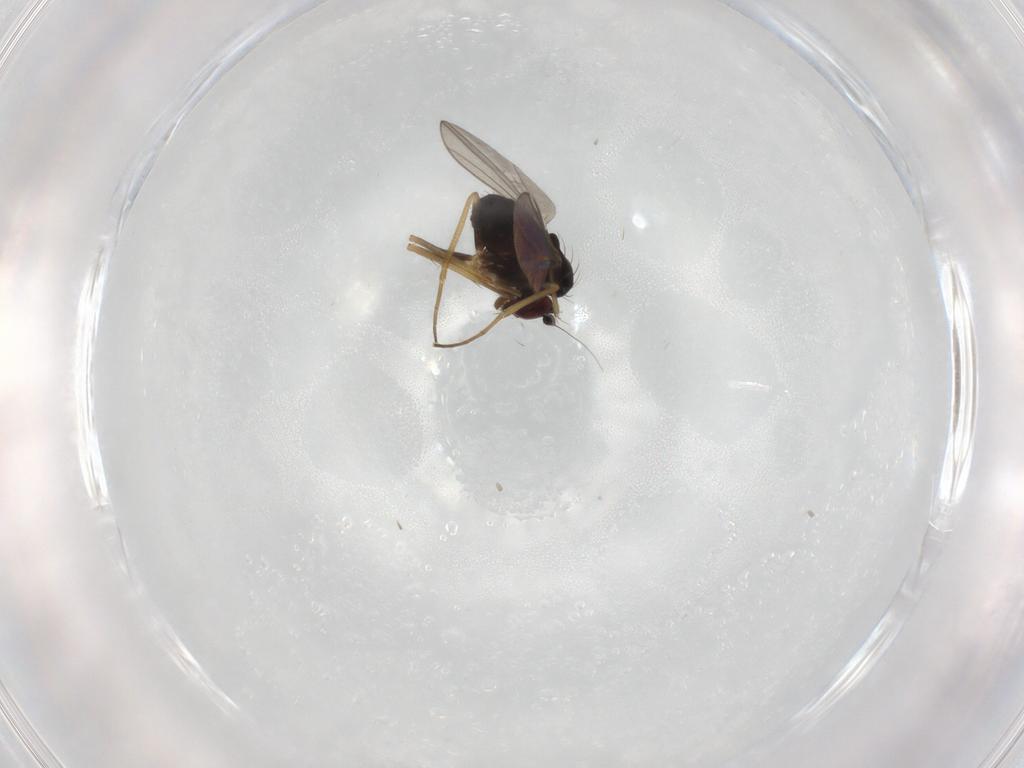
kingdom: Animalia
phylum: Arthropoda
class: Insecta
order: Diptera
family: Dolichopodidae
